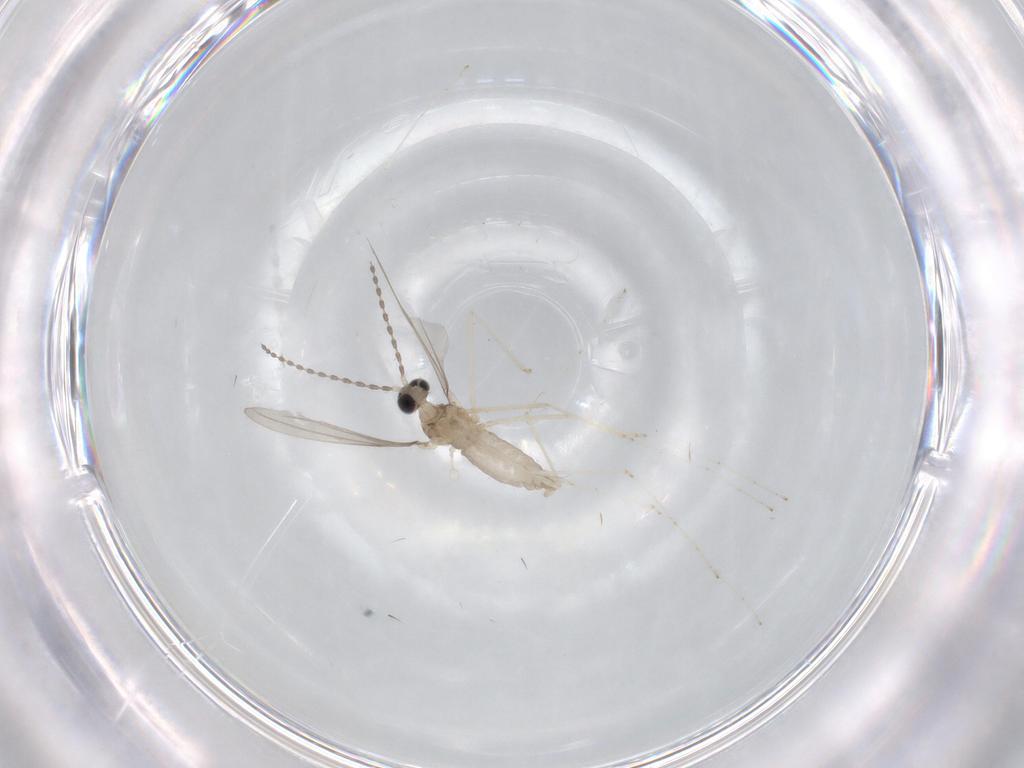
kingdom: Animalia
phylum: Arthropoda
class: Insecta
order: Diptera
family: Cecidomyiidae
